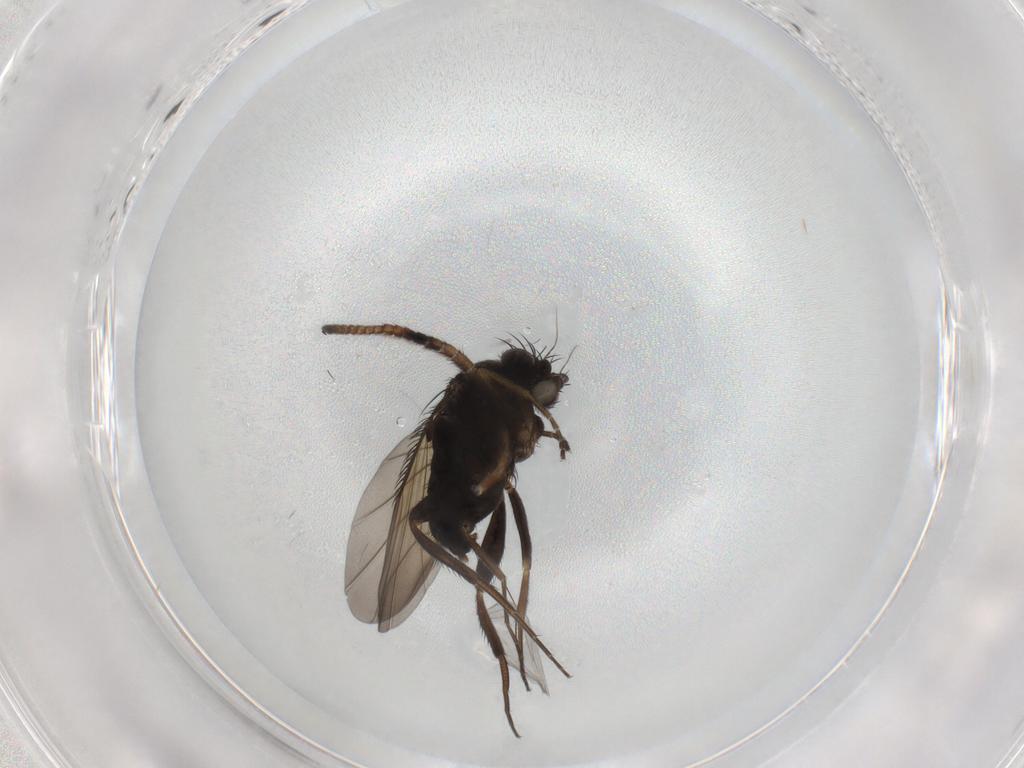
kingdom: Animalia
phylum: Arthropoda
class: Insecta
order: Diptera
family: Phoridae
